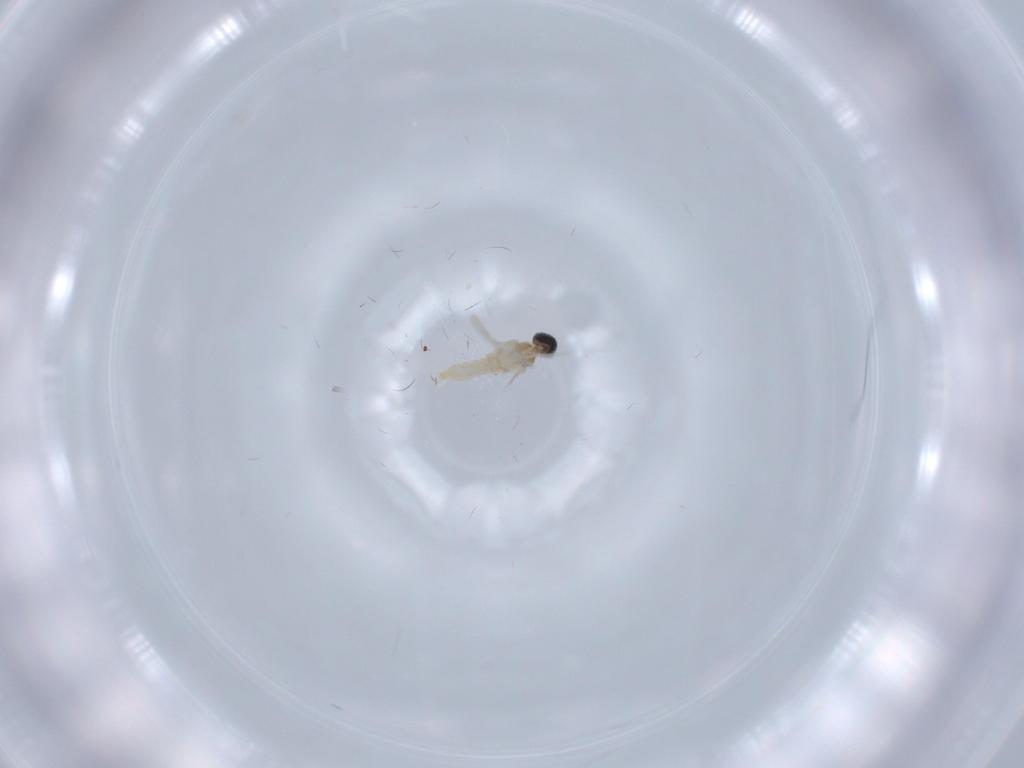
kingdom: Animalia
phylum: Arthropoda
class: Insecta
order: Diptera
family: Cecidomyiidae
